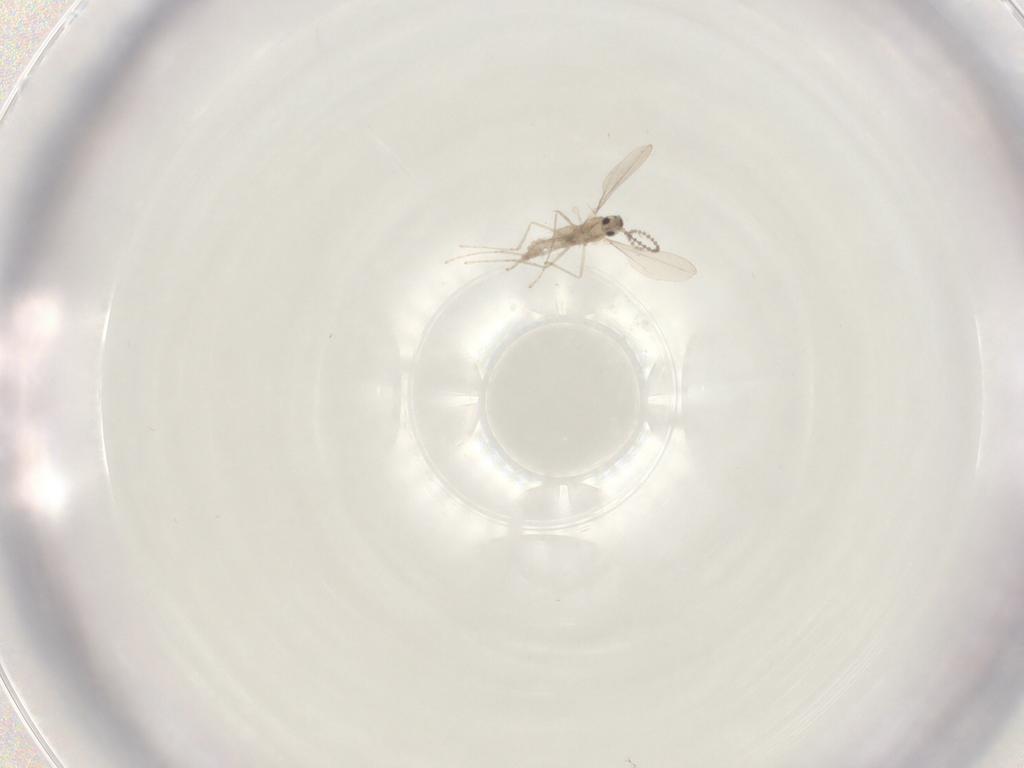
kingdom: Animalia
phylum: Arthropoda
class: Insecta
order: Diptera
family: Cecidomyiidae
